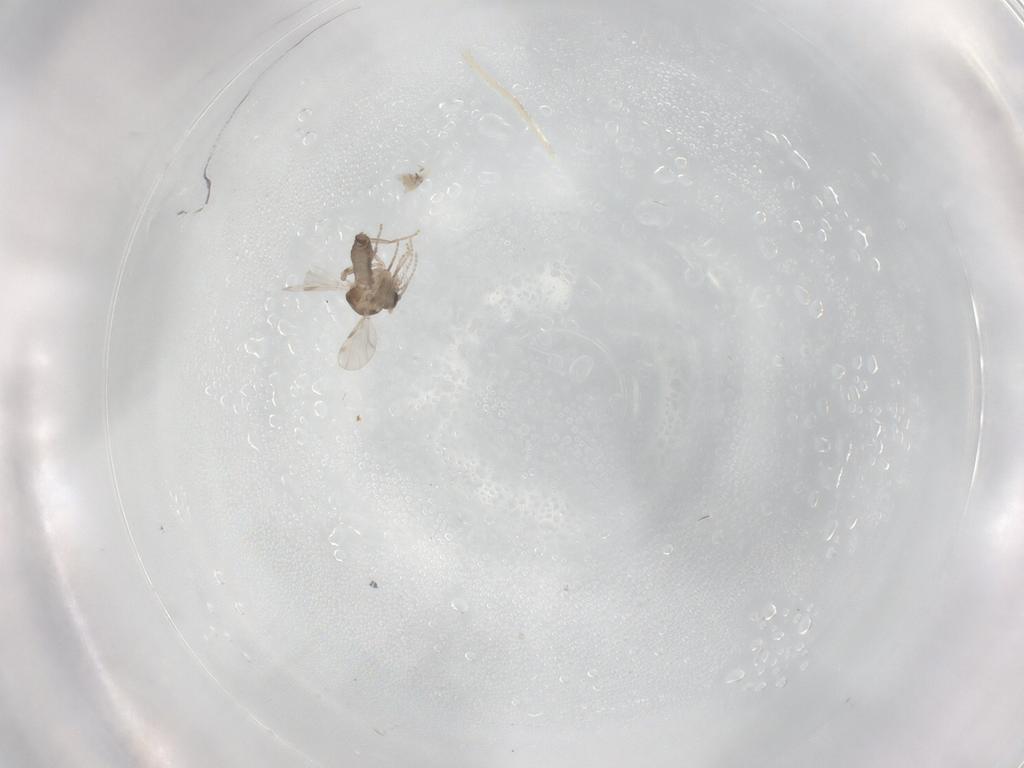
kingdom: Animalia
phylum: Arthropoda
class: Insecta
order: Diptera
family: Ceratopogonidae
